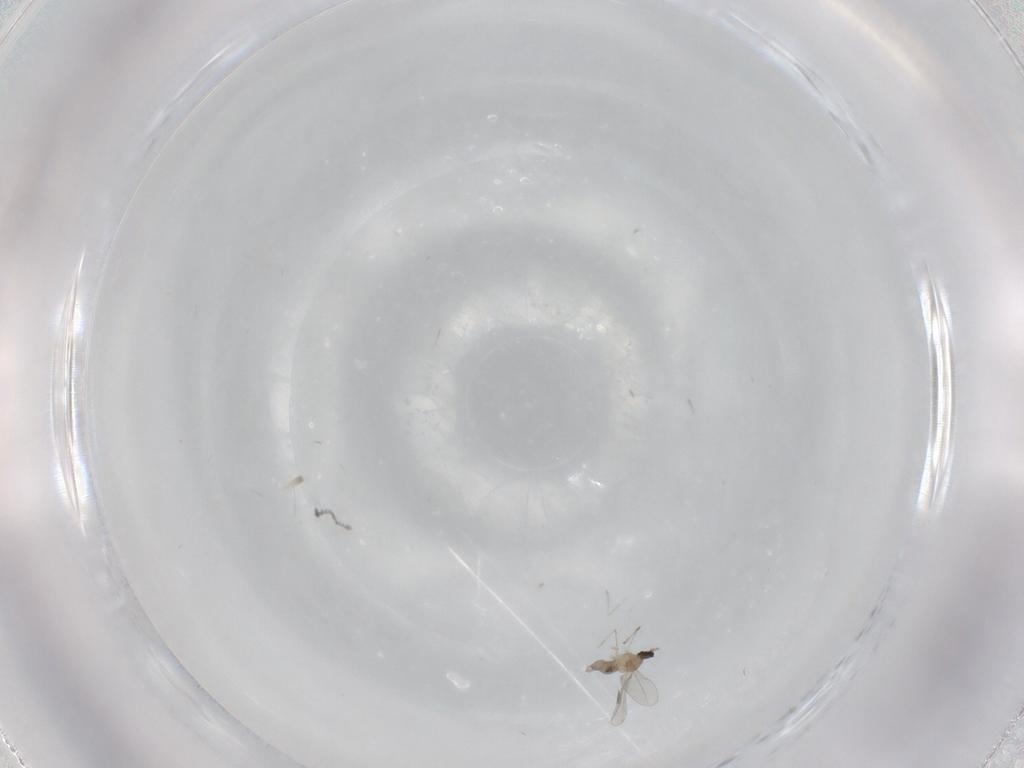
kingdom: Animalia
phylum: Arthropoda
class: Insecta
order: Diptera
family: Cecidomyiidae
